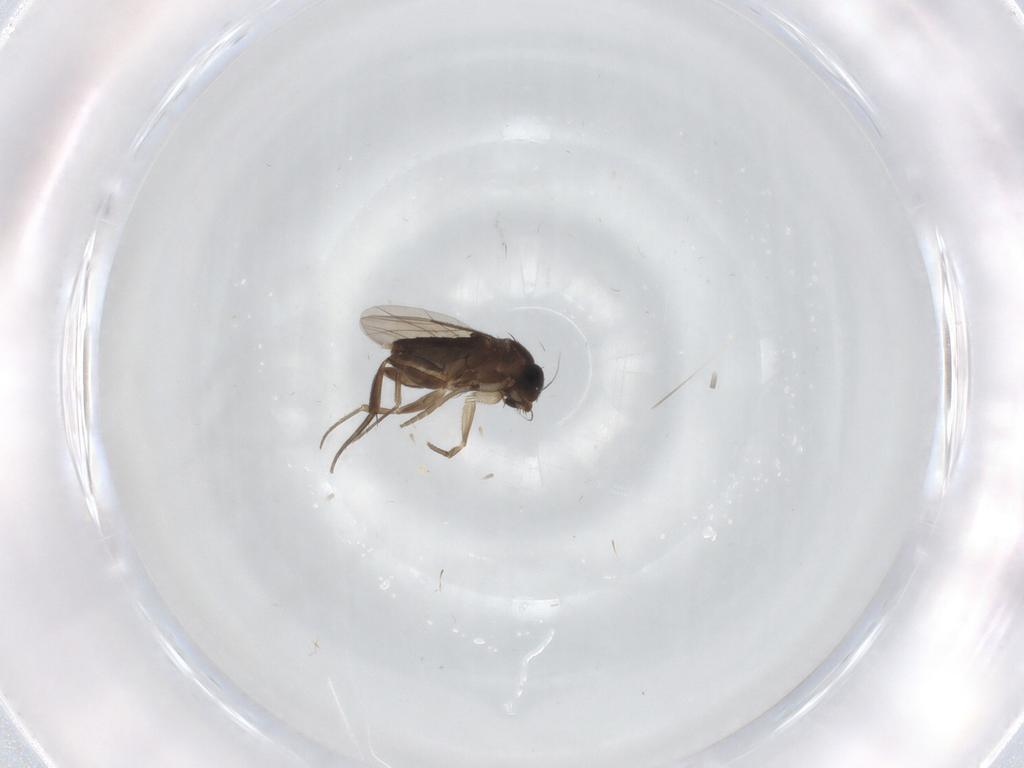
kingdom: Animalia
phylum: Arthropoda
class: Insecta
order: Diptera
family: Phoridae
